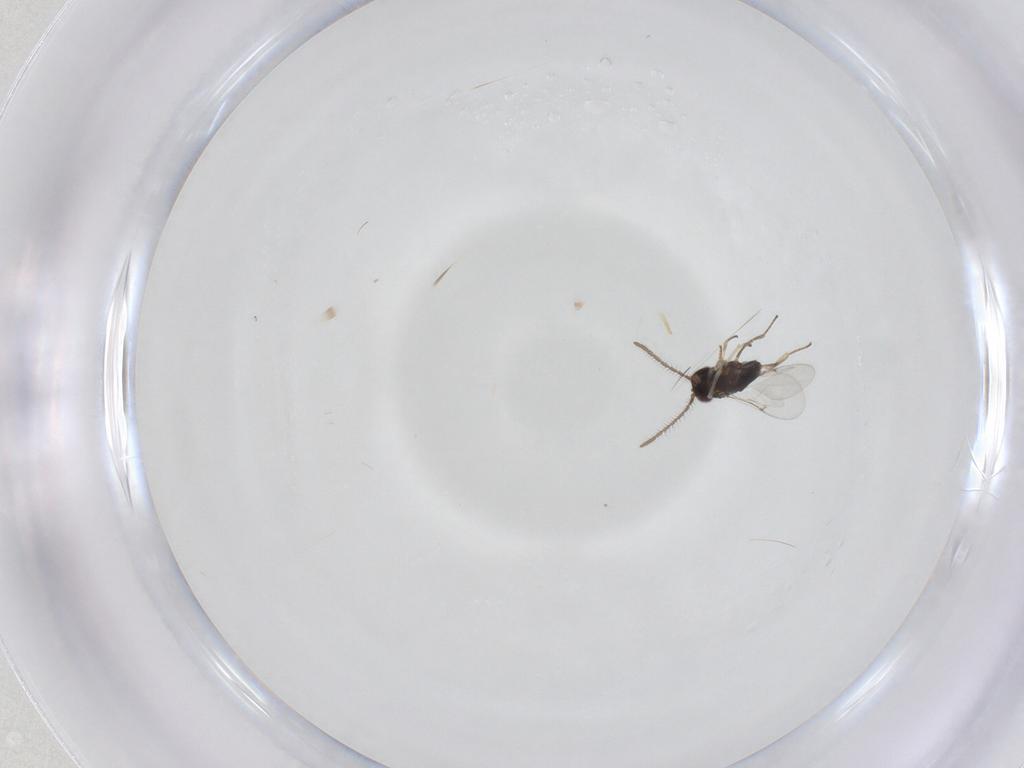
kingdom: Animalia
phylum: Arthropoda
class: Insecta
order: Hymenoptera
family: Encyrtidae
